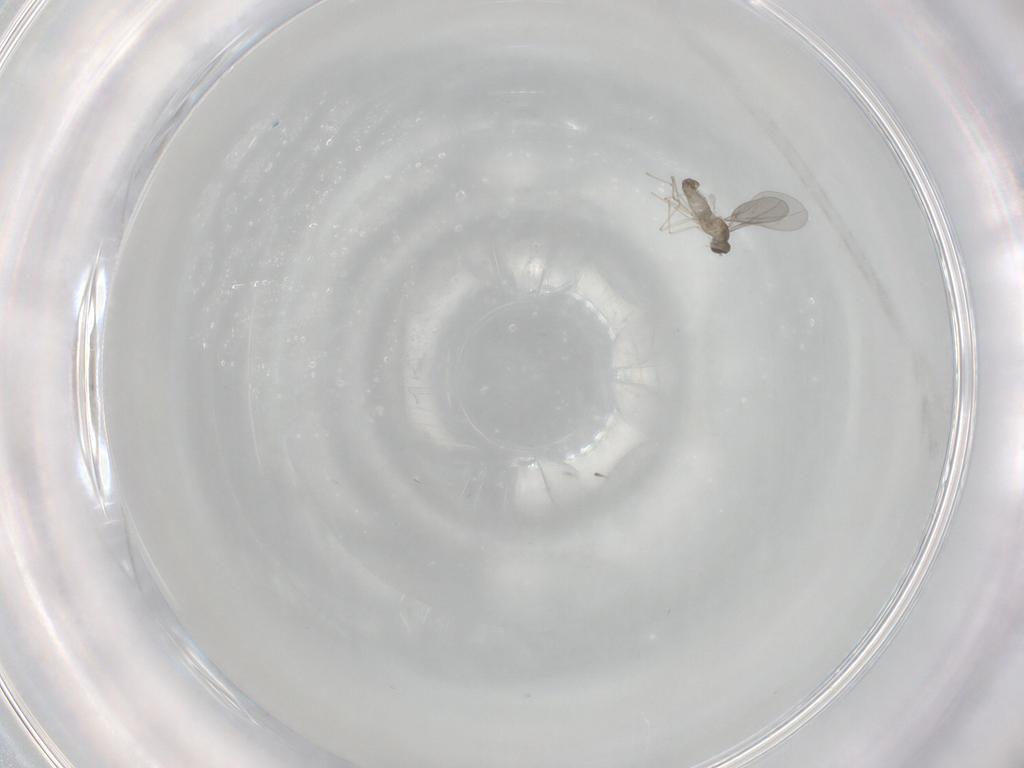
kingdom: Animalia
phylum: Arthropoda
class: Insecta
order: Diptera
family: Cecidomyiidae
